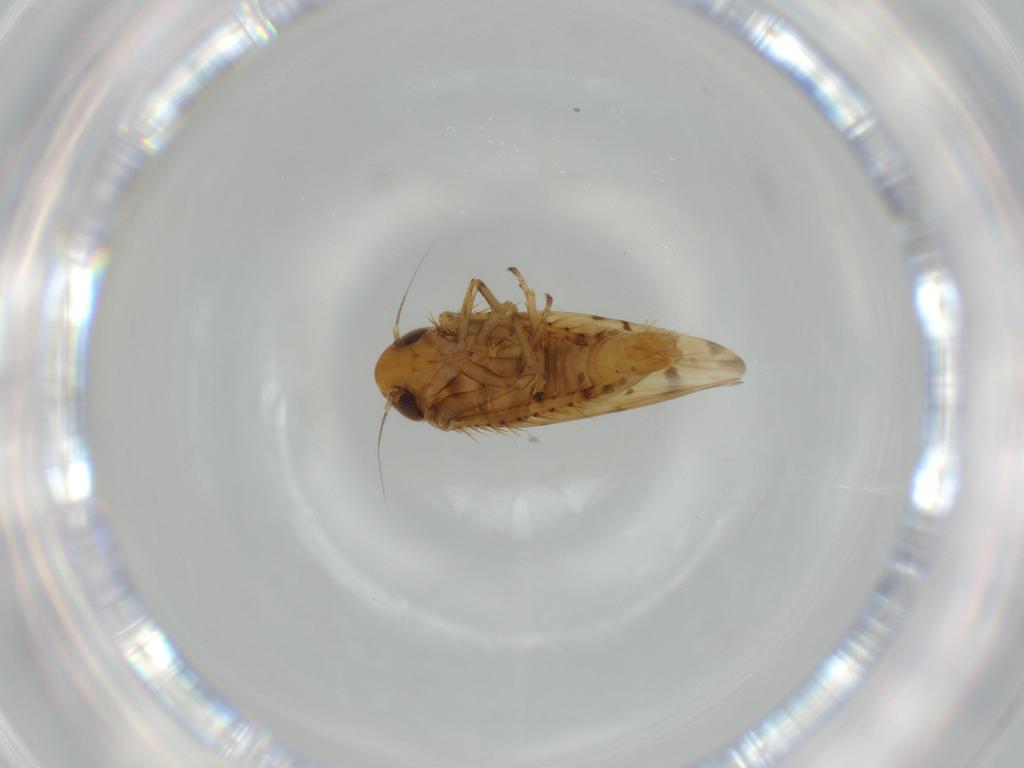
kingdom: Animalia
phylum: Arthropoda
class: Insecta
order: Hemiptera
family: Cicadellidae
